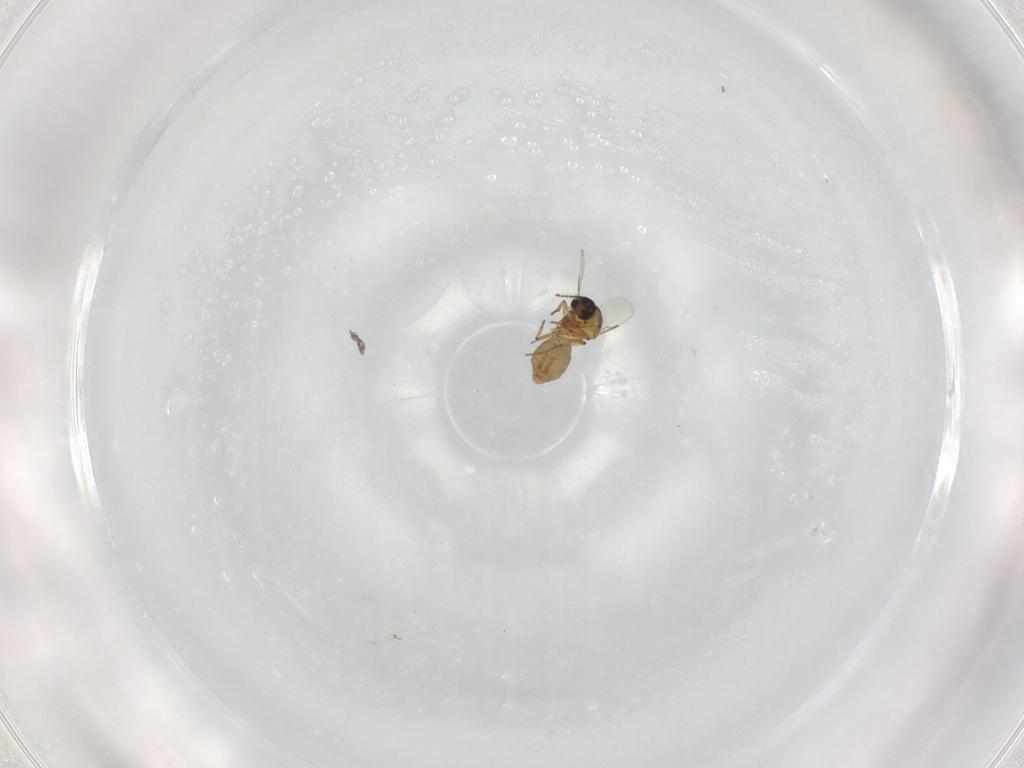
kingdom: Animalia
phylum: Arthropoda
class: Insecta
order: Diptera
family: Ceratopogonidae
